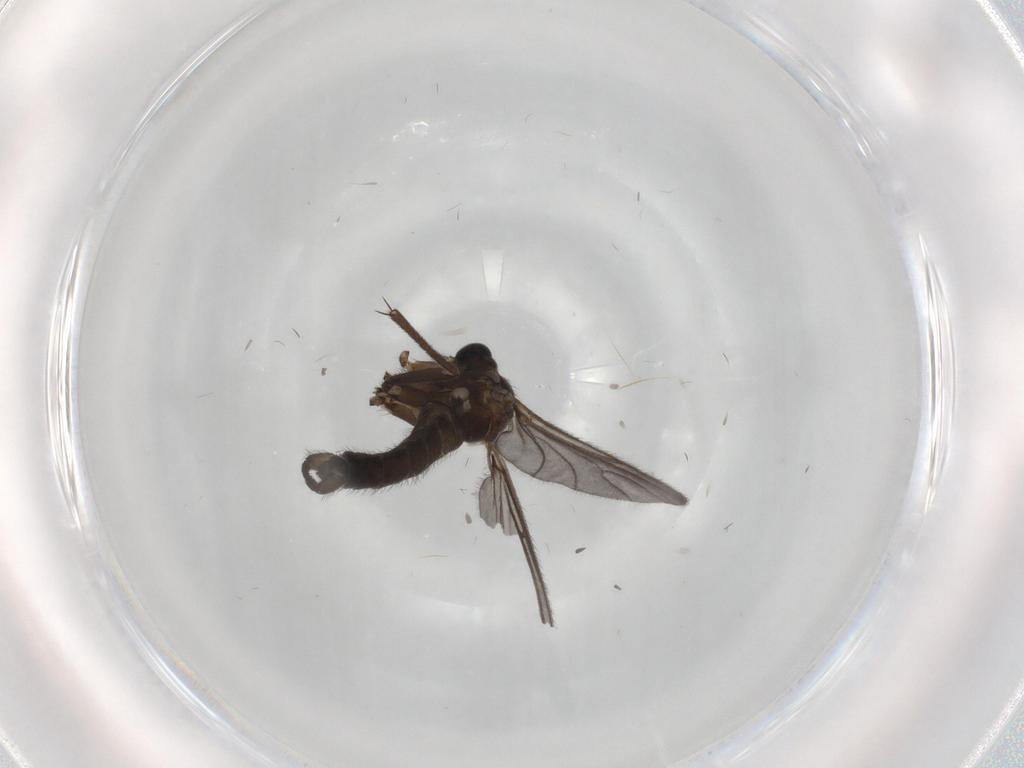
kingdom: Animalia
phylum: Arthropoda
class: Insecta
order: Diptera
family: Sciaridae
